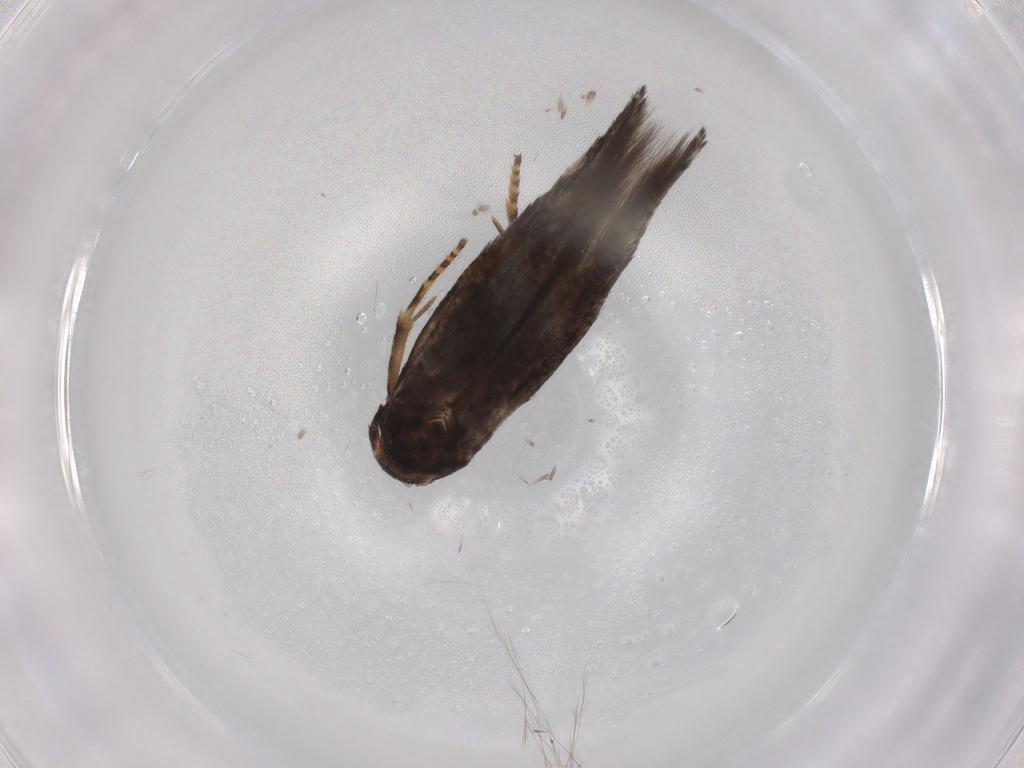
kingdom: Animalia
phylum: Arthropoda
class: Insecta
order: Lepidoptera
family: Momphidae
